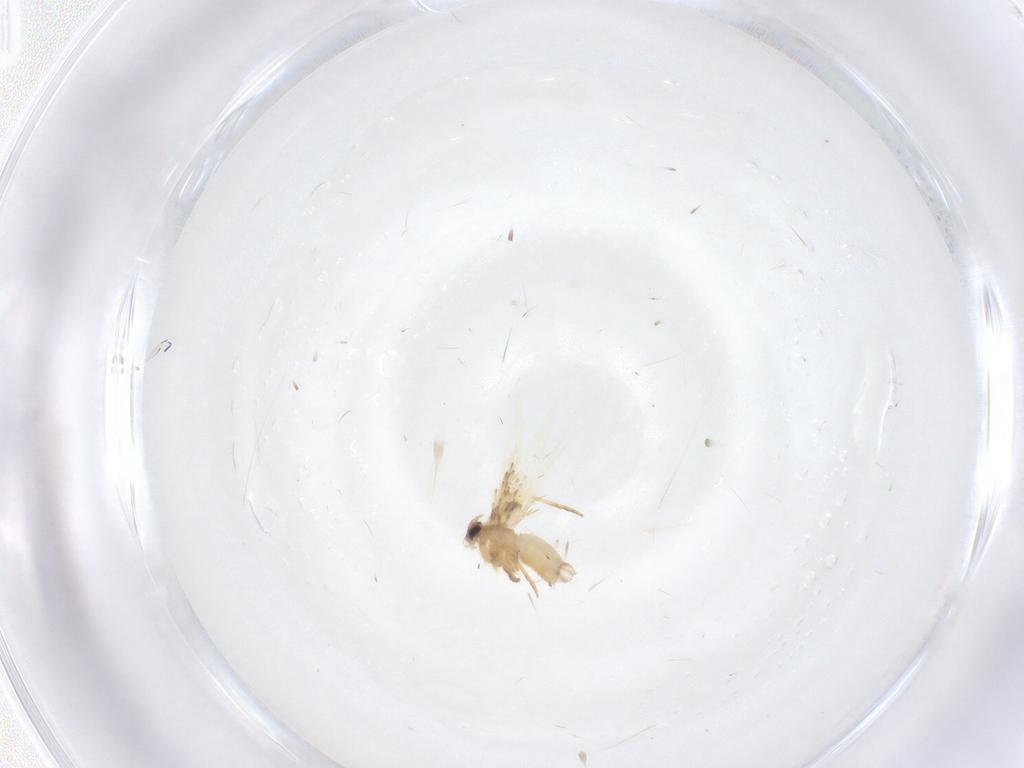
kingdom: Animalia
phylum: Arthropoda
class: Insecta
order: Lepidoptera
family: Nepticulidae
